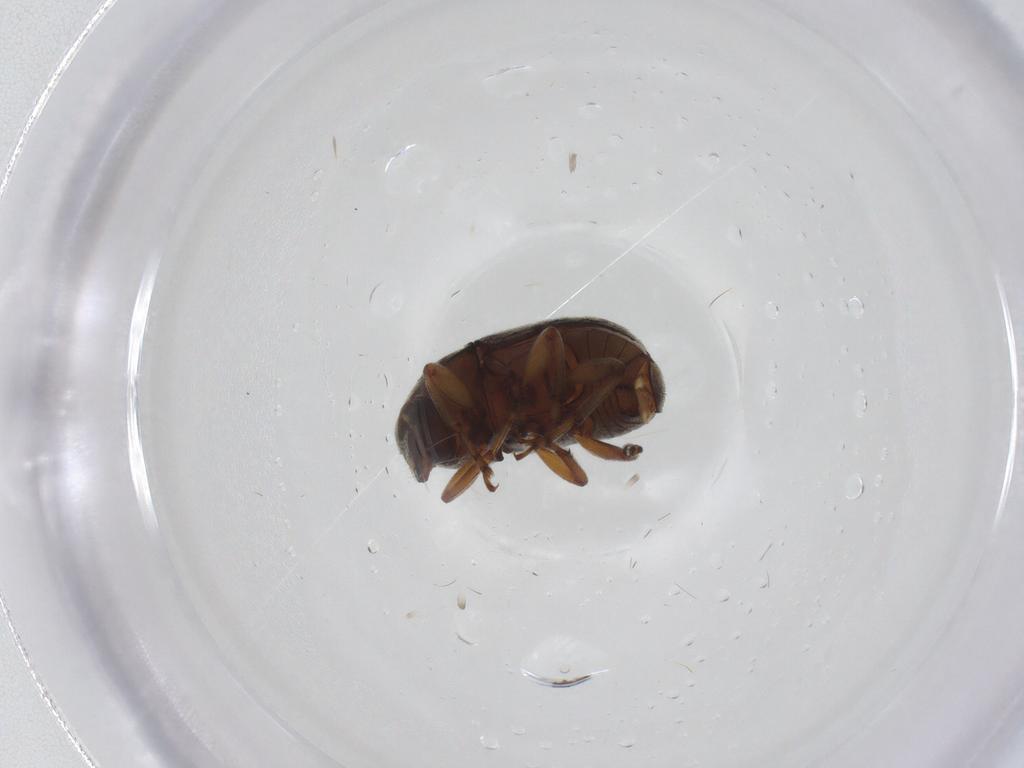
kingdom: Animalia
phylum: Arthropoda
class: Insecta
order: Coleoptera
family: Anthribidae
